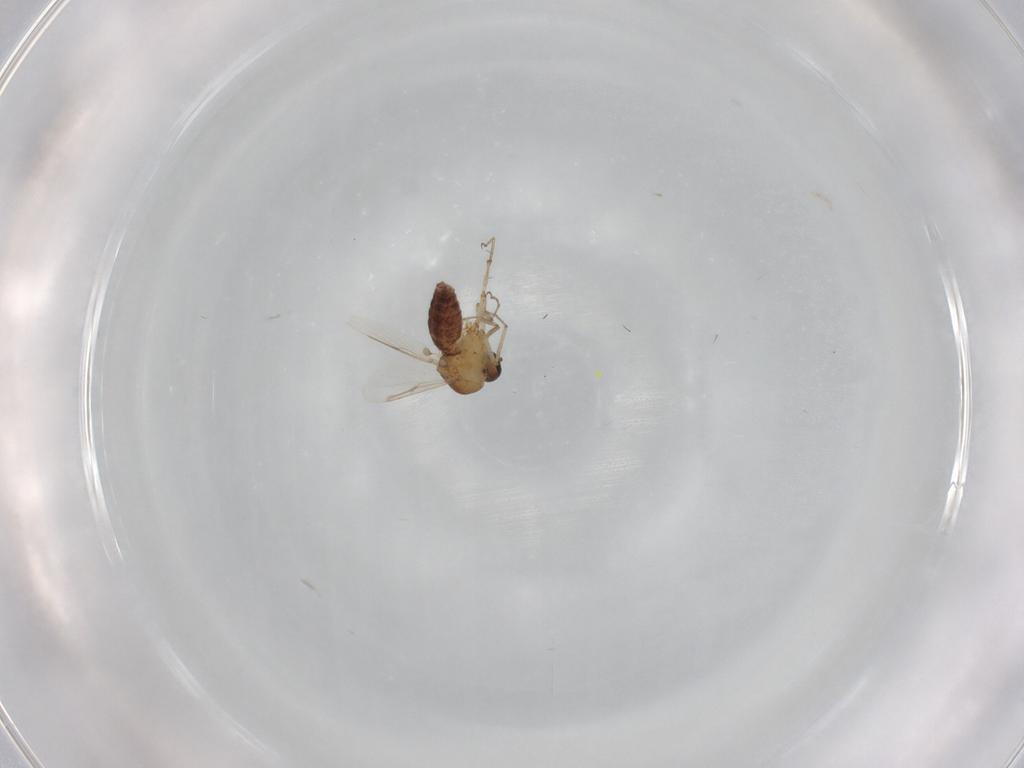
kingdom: Animalia
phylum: Arthropoda
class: Insecta
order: Diptera
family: Ceratopogonidae
